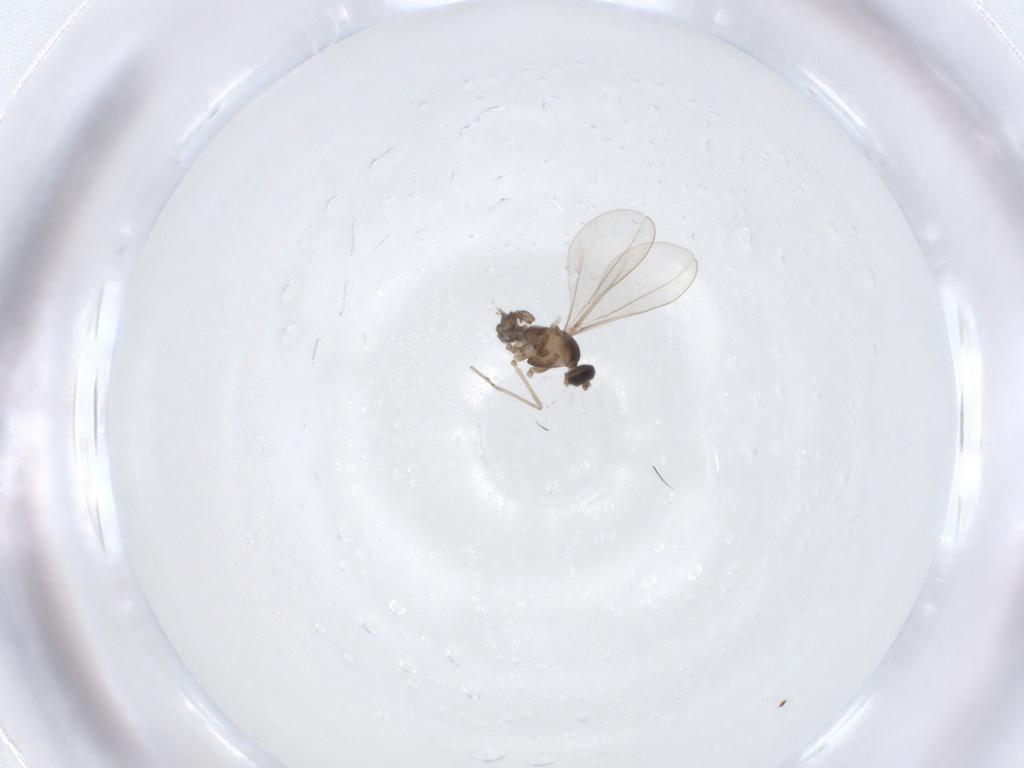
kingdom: Animalia
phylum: Arthropoda
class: Insecta
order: Diptera
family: Cecidomyiidae
